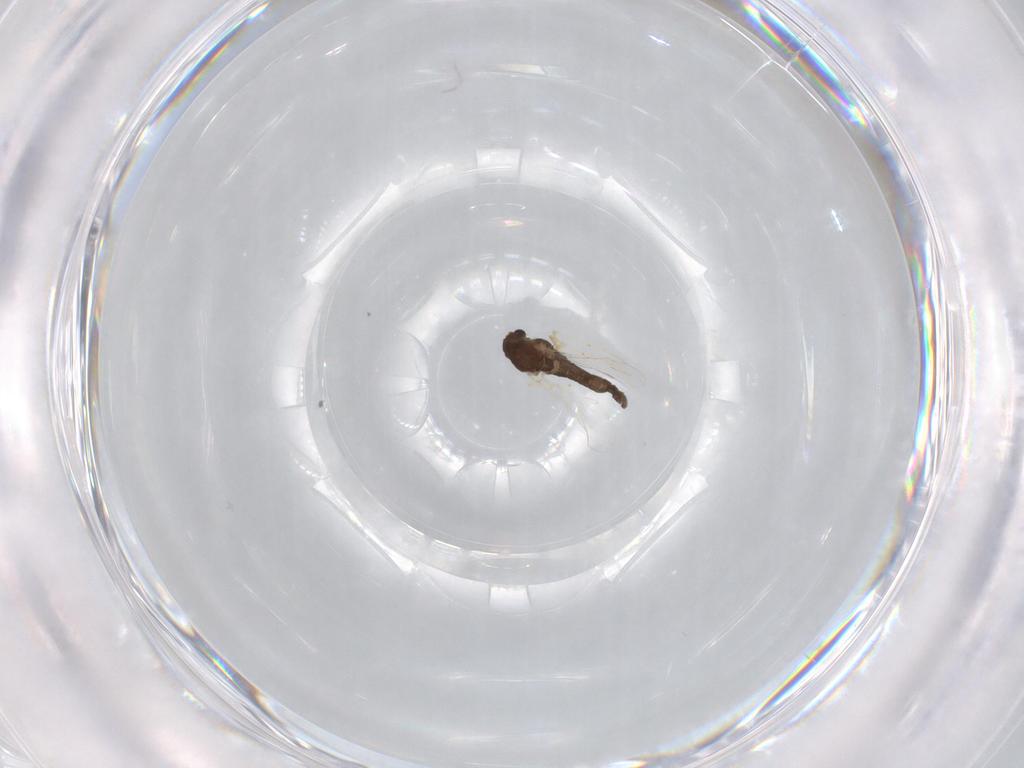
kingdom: Animalia
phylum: Arthropoda
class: Insecta
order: Diptera
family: Chironomidae
